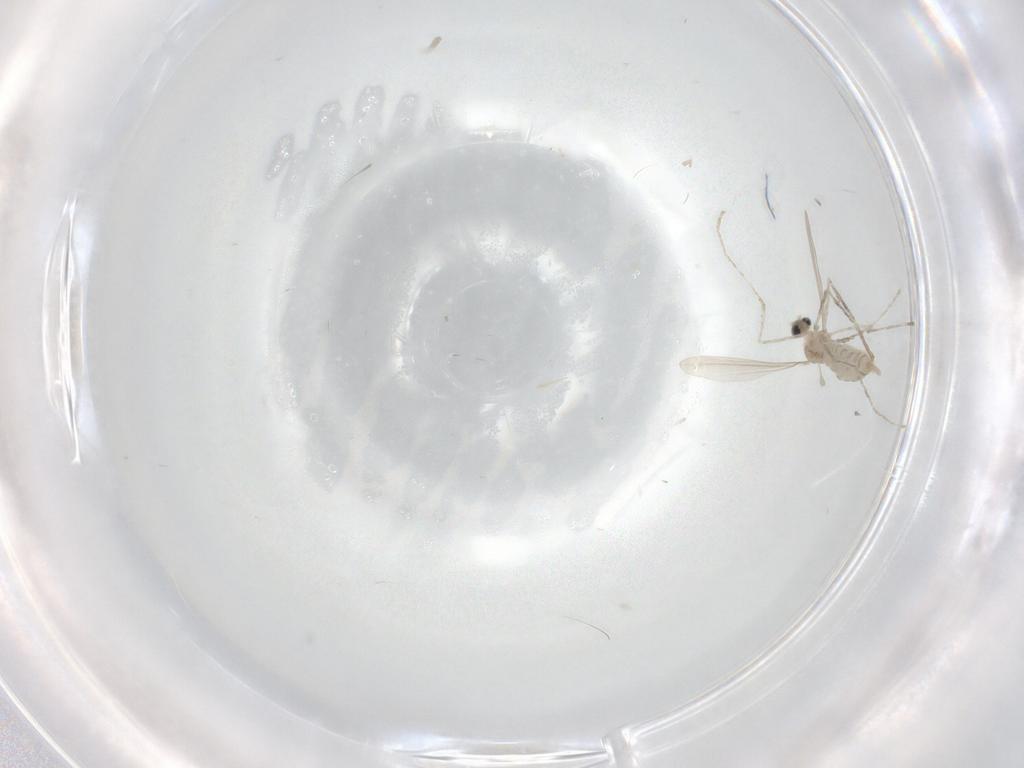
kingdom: Animalia
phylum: Arthropoda
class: Insecta
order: Diptera
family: Cecidomyiidae
